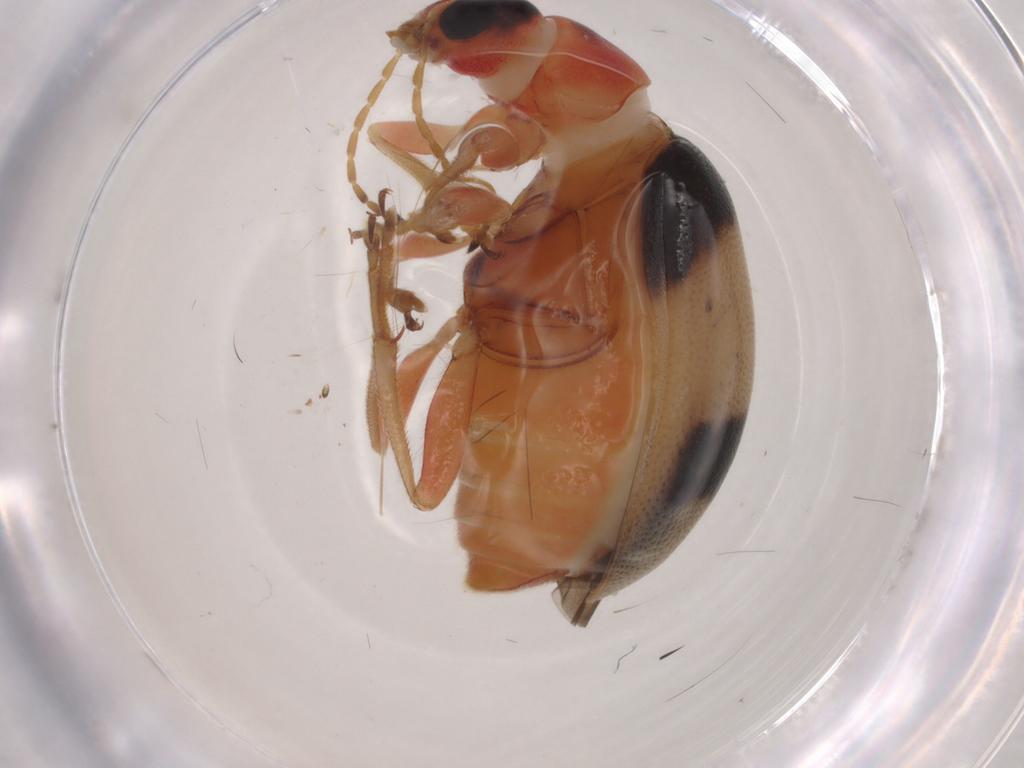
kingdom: Animalia
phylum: Arthropoda
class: Insecta
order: Coleoptera
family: Chrysomelidae
